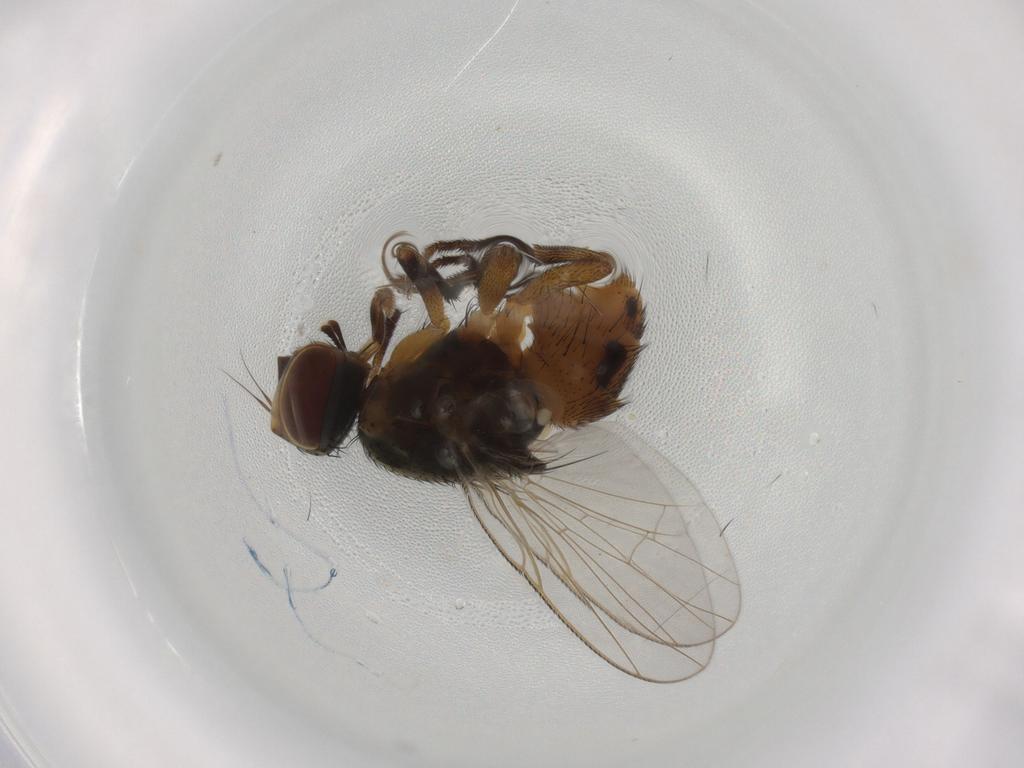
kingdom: Animalia
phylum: Arthropoda
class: Insecta
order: Diptera
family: Muscidae
